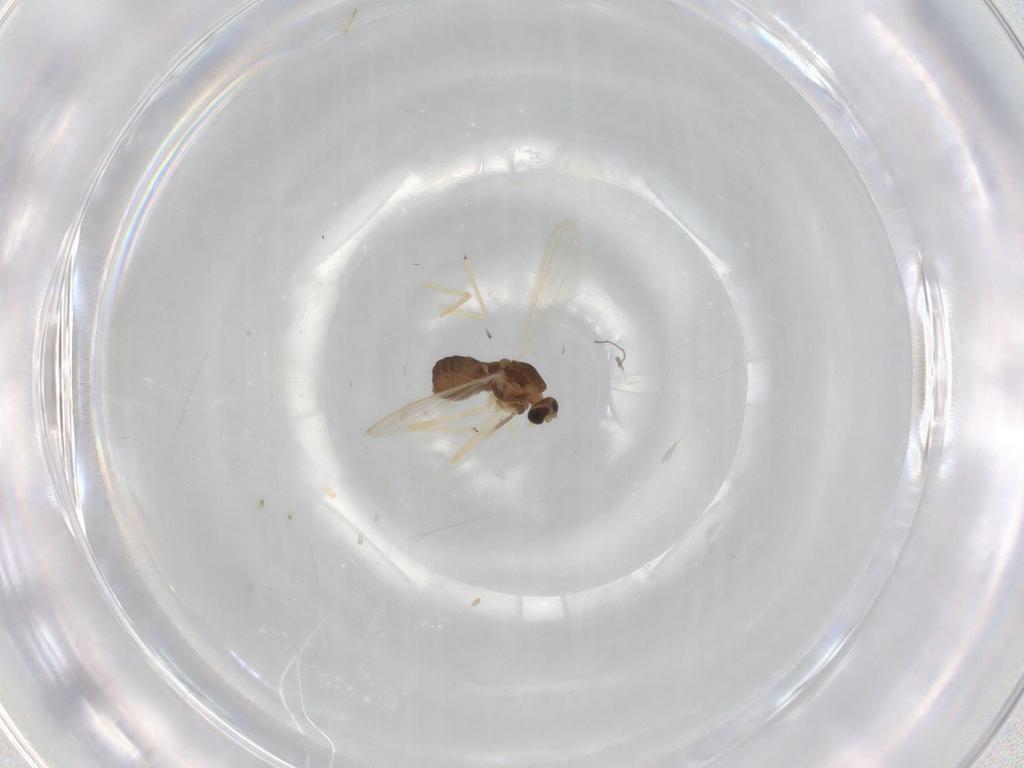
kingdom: Animalia
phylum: Arthropoda
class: Insecta
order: Diptera
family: Chironomidae
